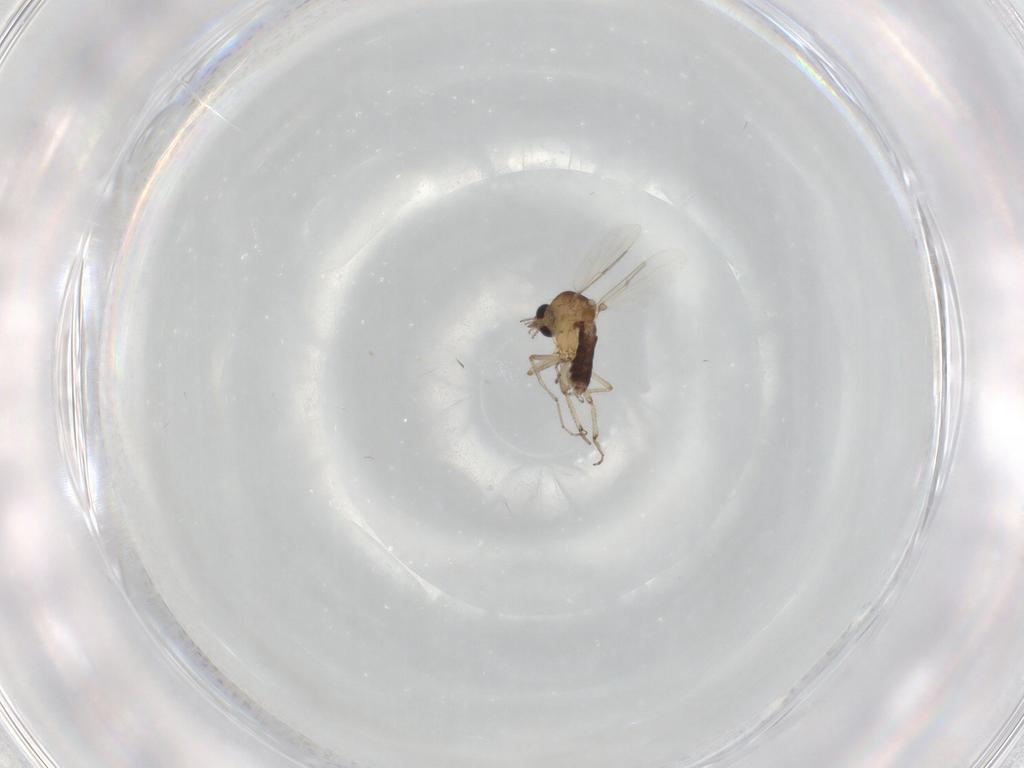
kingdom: Animalia
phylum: Arthropoda
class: Insecta
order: Diptera
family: Ceratopogonidae
